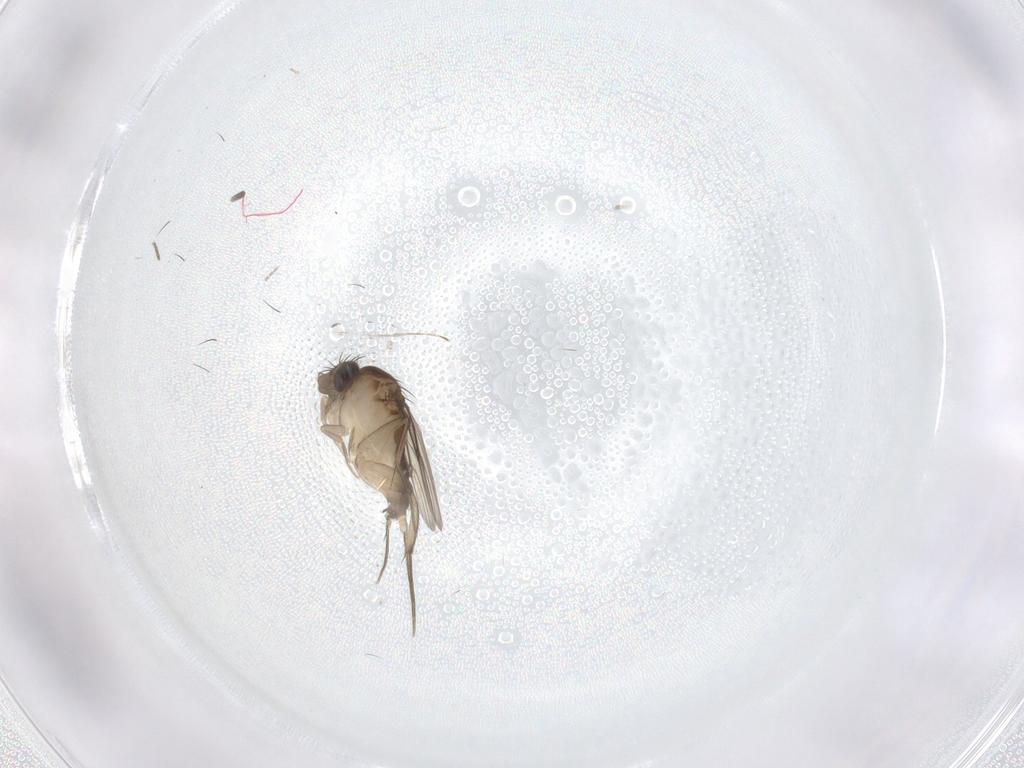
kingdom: Animalia
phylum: Arthropoda
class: Insecta
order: Diptera
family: Phoridae
